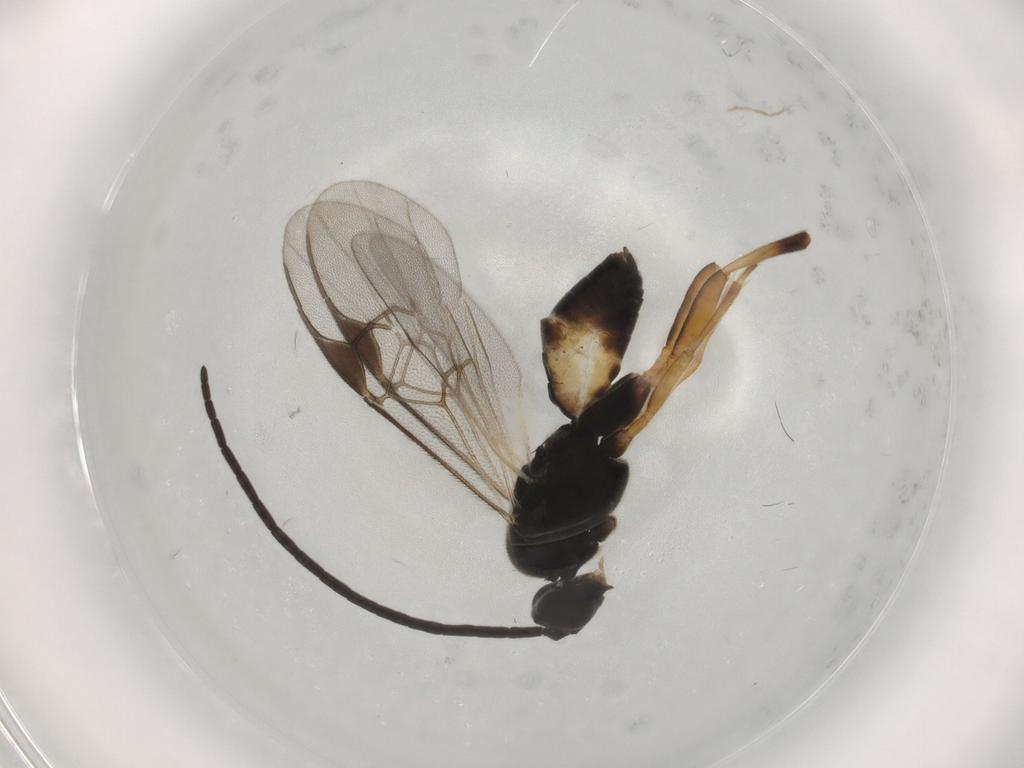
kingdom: Animalia
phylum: Arthropoda
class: Insecta
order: Hymenoptera
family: Braconidae
